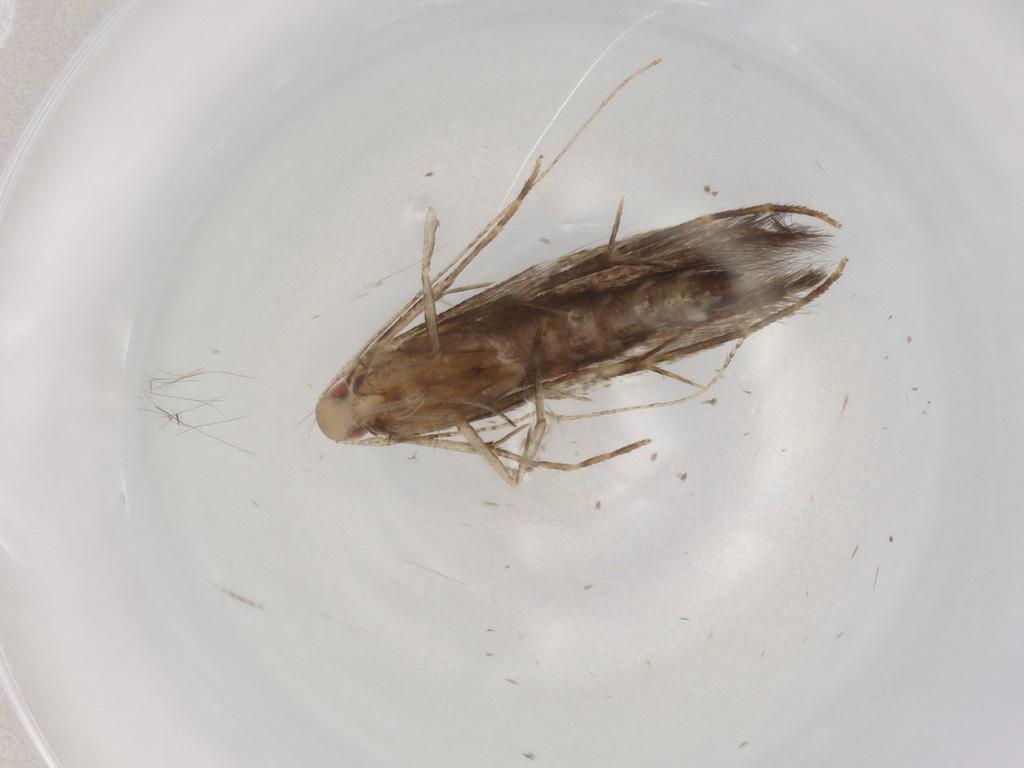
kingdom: Animalia
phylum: Arthropoda
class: Insecta
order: Lepidoptera
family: Cosmopterigidae
